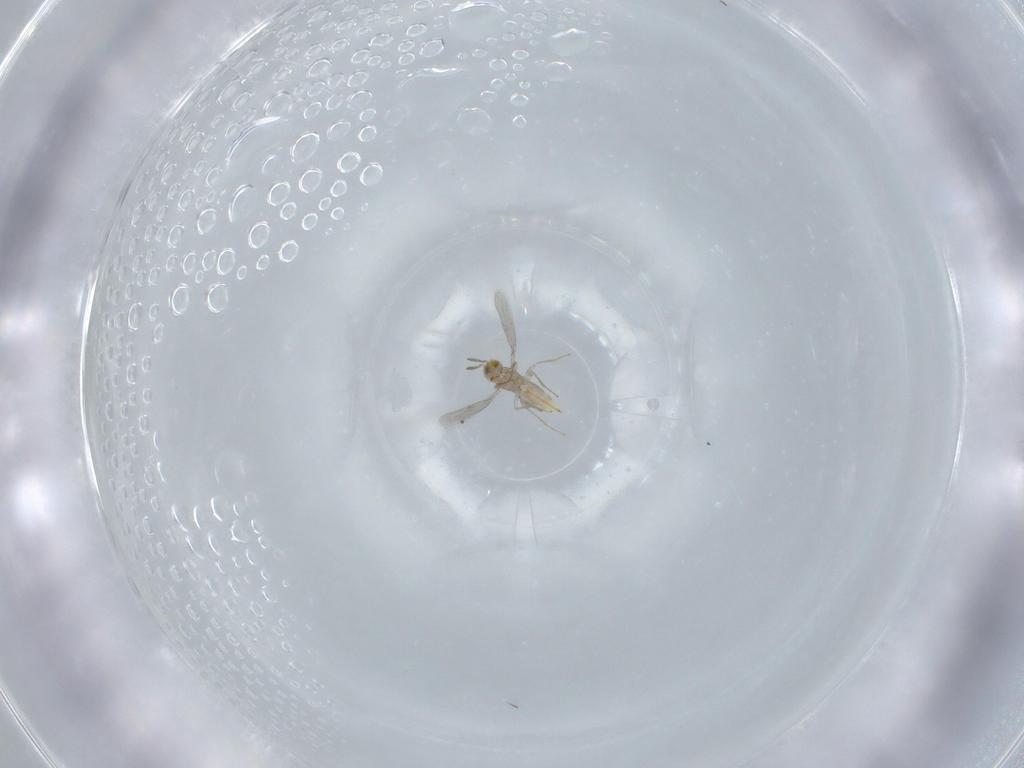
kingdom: Animalia
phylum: Arthropoda
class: Insecta
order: Hymenoptera
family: Aphelinidae
